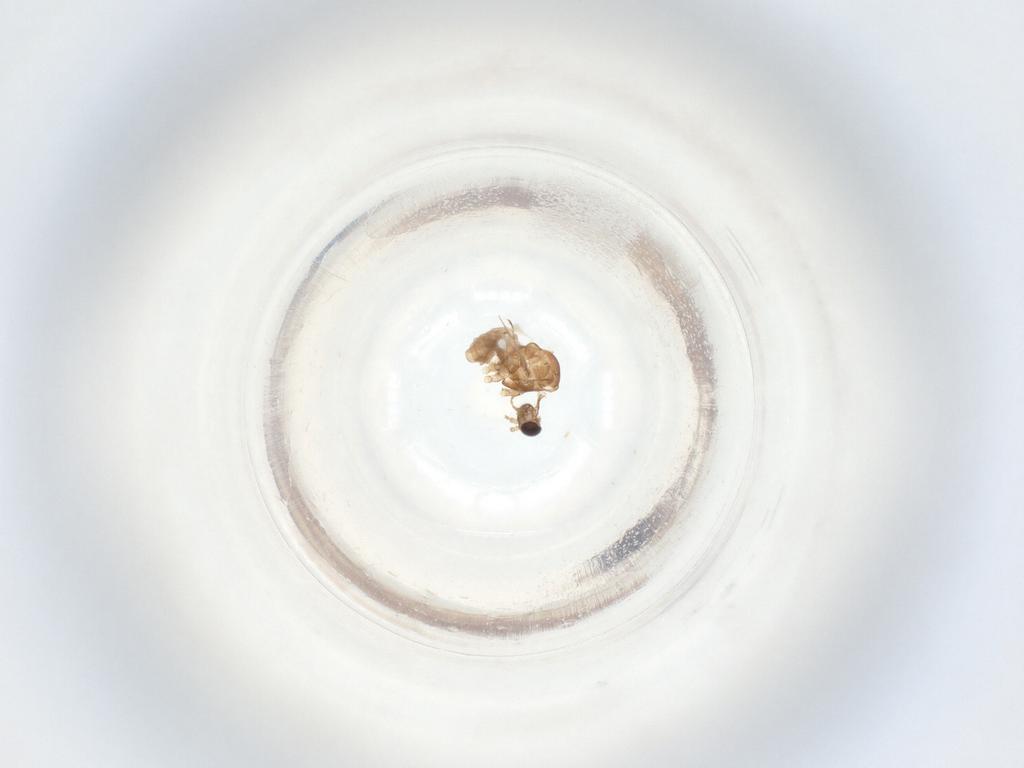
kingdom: Animalia
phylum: Arthropoda
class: Insecta
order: Diptera
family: Cecidomyiidae
